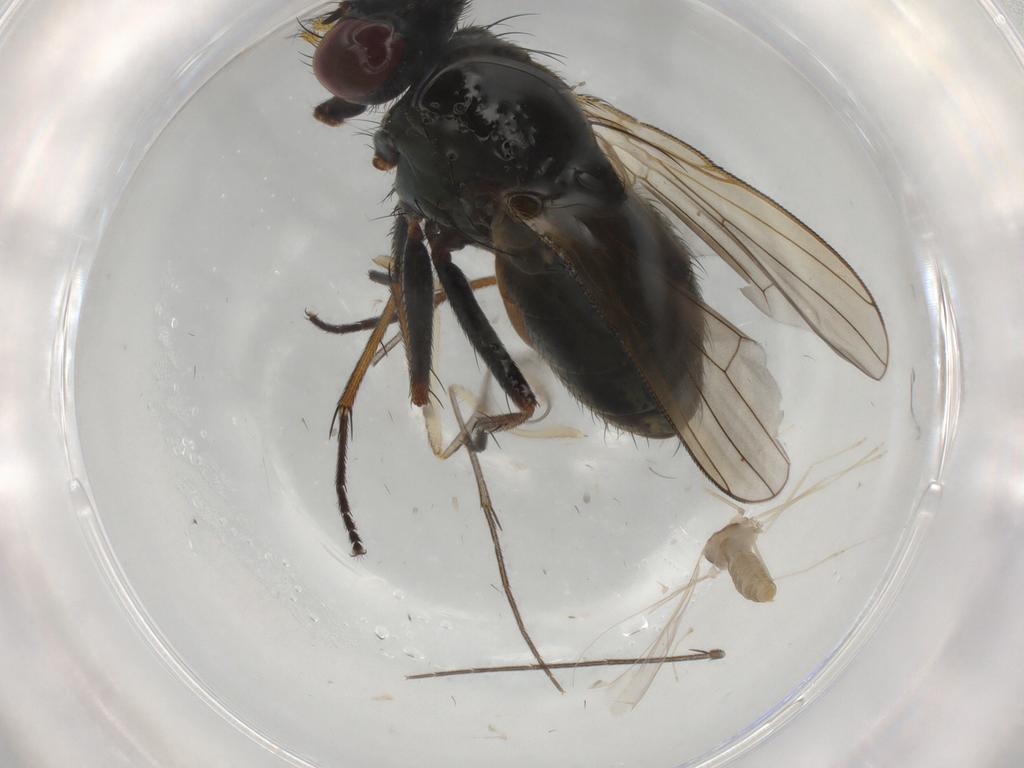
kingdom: Animalia
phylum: Arthropoda
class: Insecta
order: Diptera
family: Muscidae
